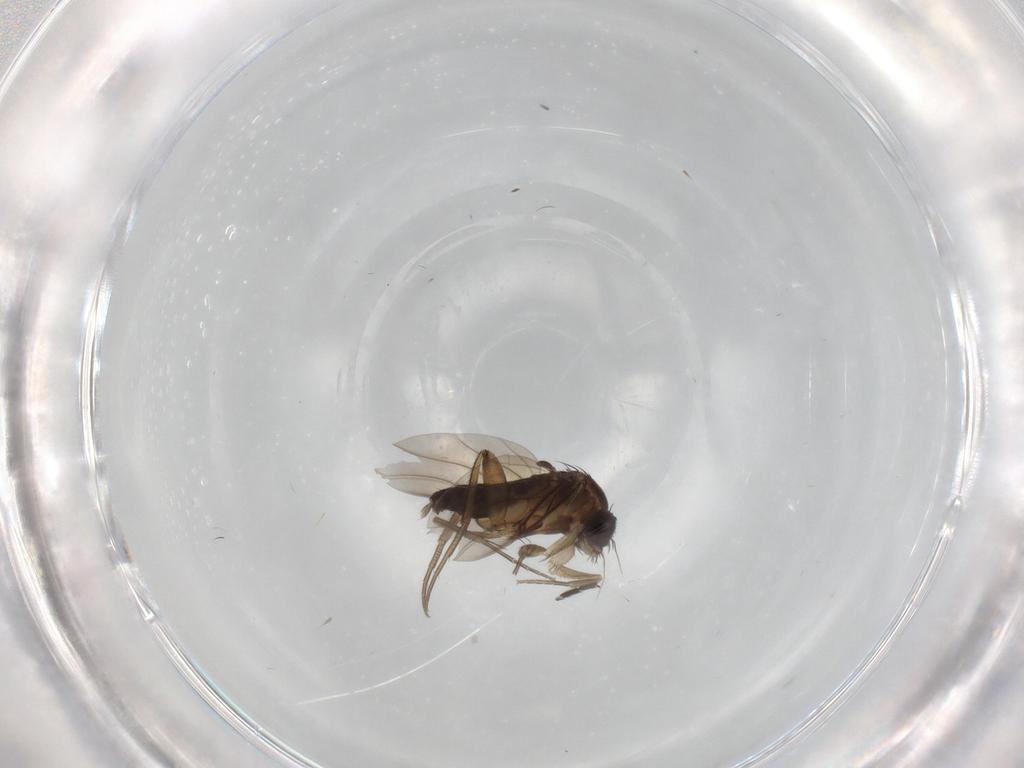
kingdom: Animalia
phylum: Arthropoda
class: Insecta
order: Diptera
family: Phoridae
